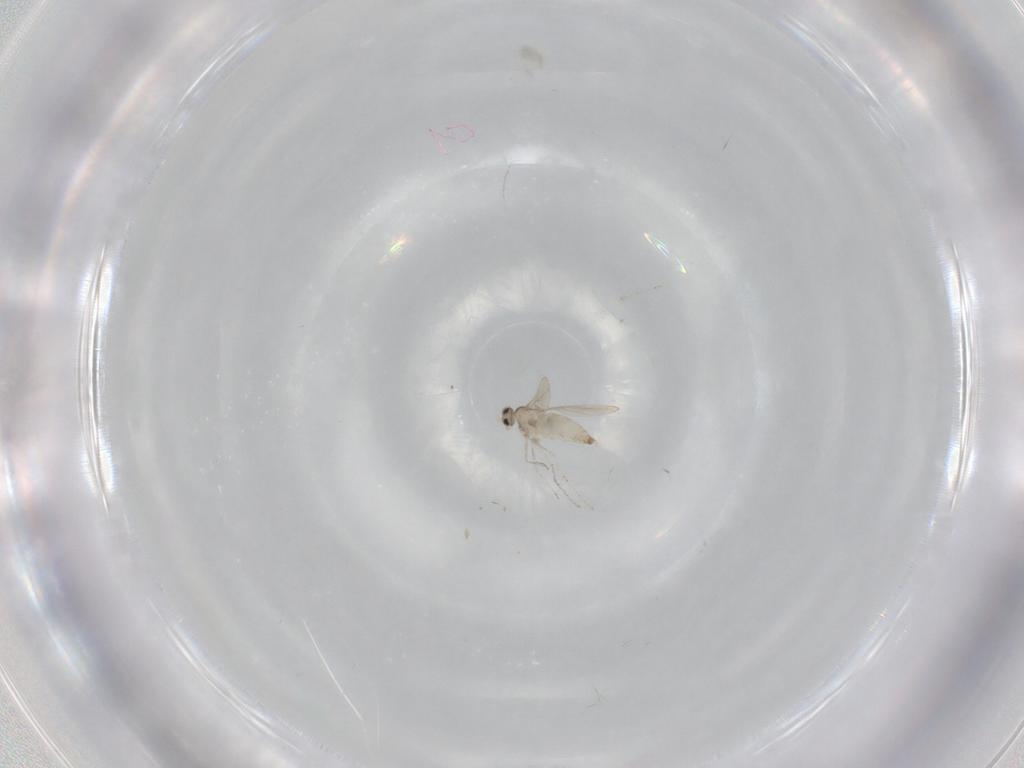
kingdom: Animalia
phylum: Arthropoda
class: Insecta
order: Diptera
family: Cecidomyiidae
